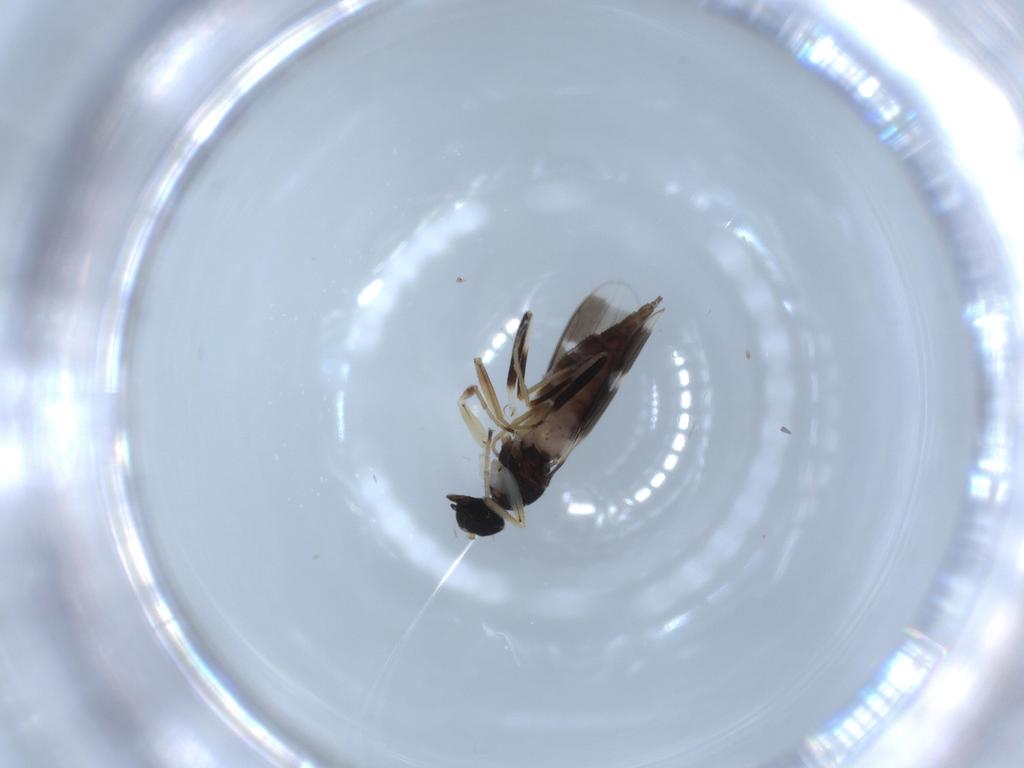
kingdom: Animalia
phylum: Arthropoda
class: Insecta
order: Diptera
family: Hybotidae
